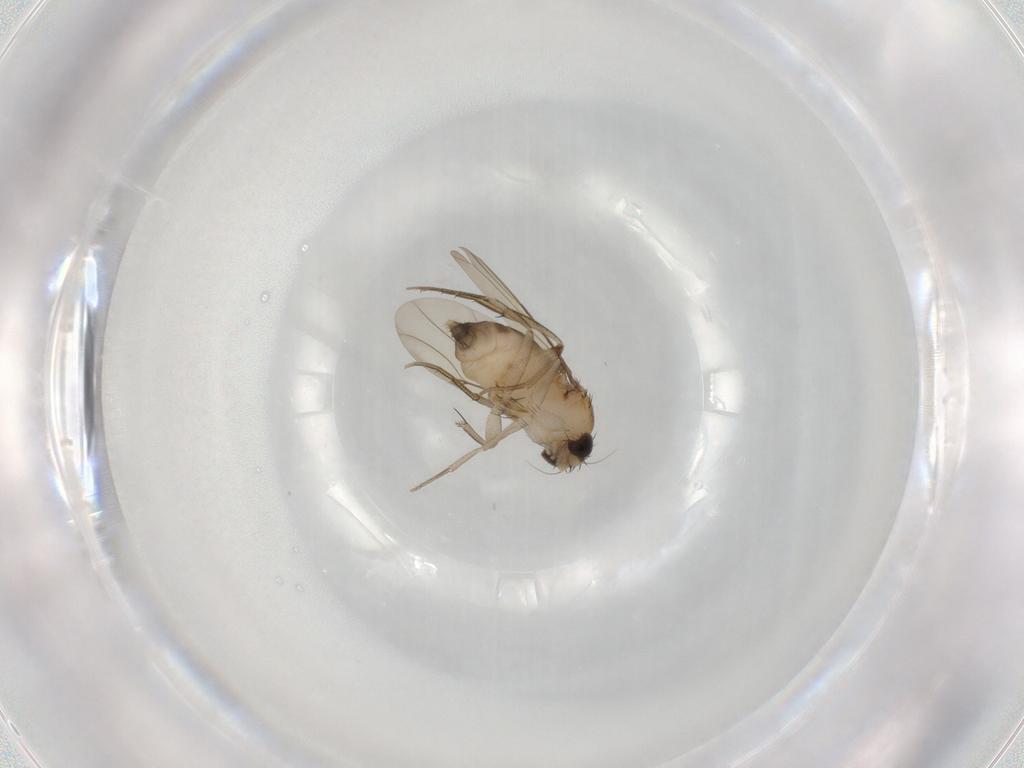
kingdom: Animalia
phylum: Arthropoda
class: Insecta
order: Diptera
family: Phoridae
